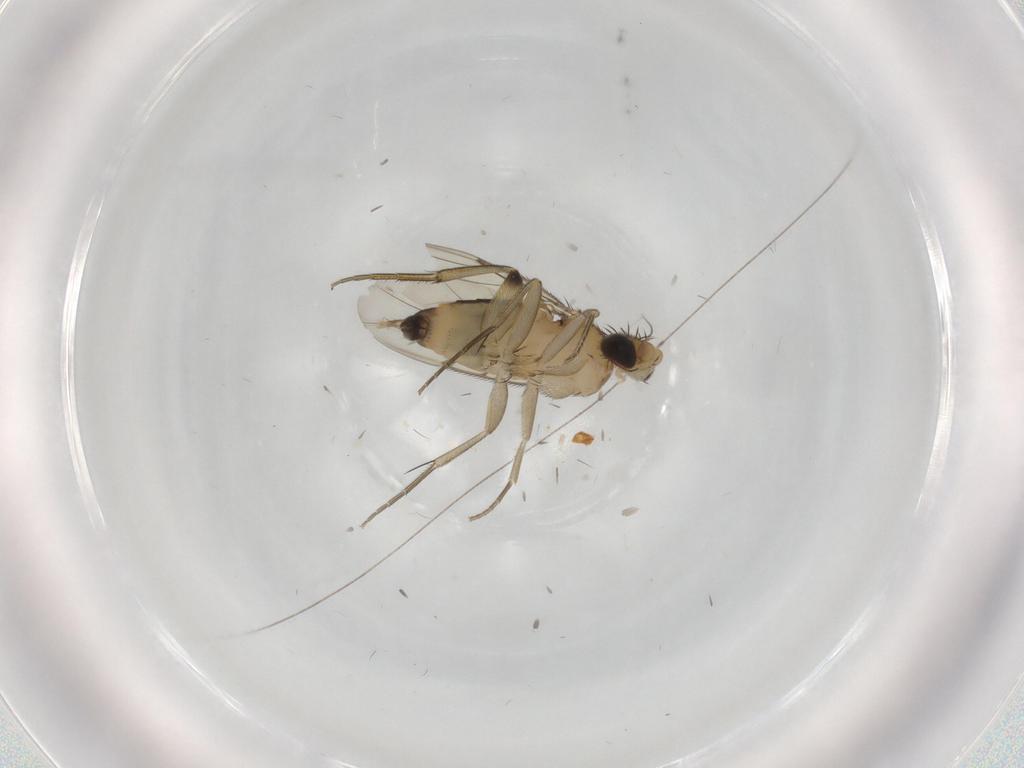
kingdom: Animalia
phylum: Arthropoda
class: Insecta
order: Diptera
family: Phoridae
